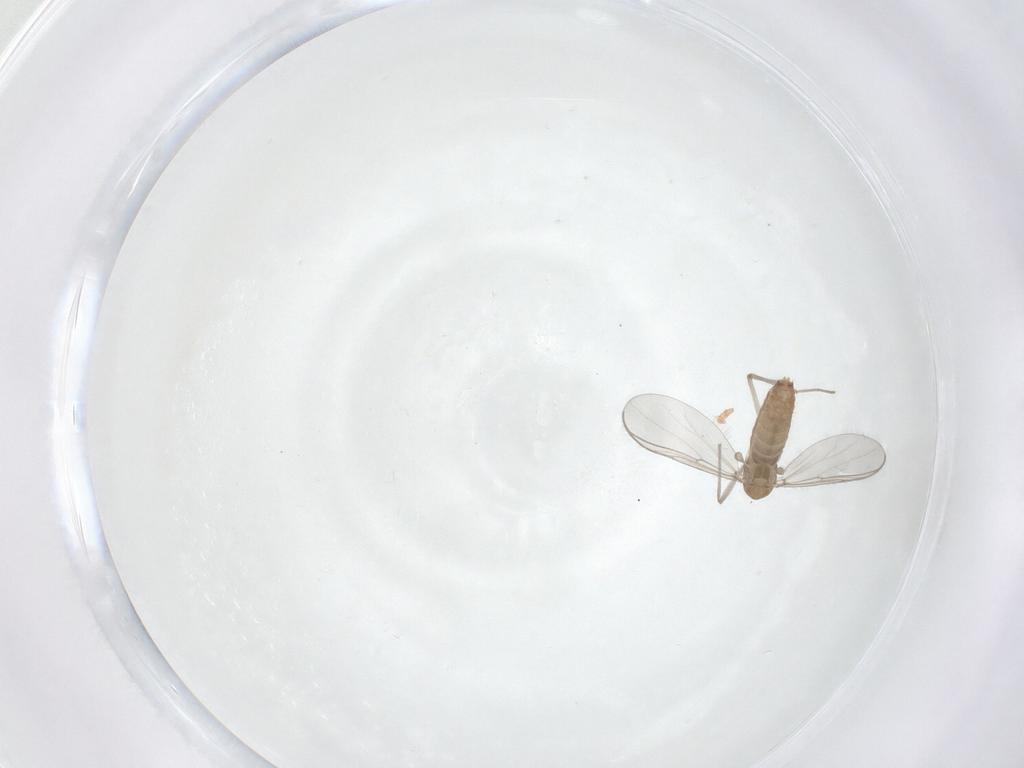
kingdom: Animalia
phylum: Arthropoda
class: Insecta
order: Diptera
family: Chironomidae
